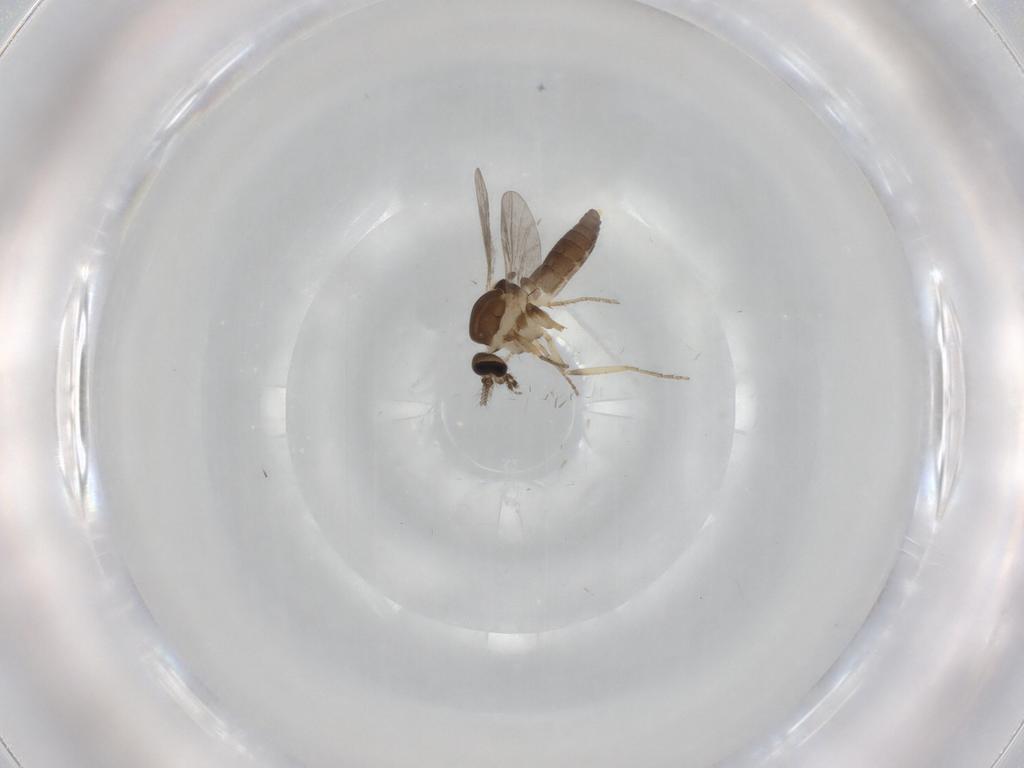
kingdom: Animalia
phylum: Arthropoda
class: Insecta
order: Diptera
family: Ceratopogonidae
